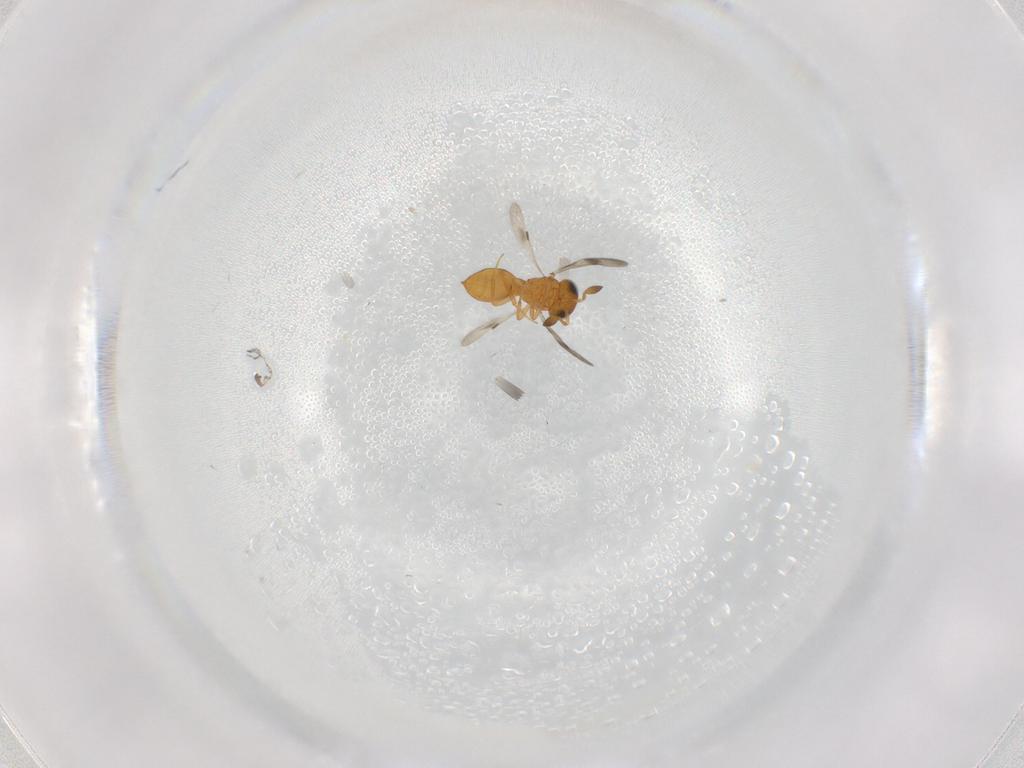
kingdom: Animalia
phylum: Arthropoda
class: Insecta
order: Hymenoptera
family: Scelionidae
